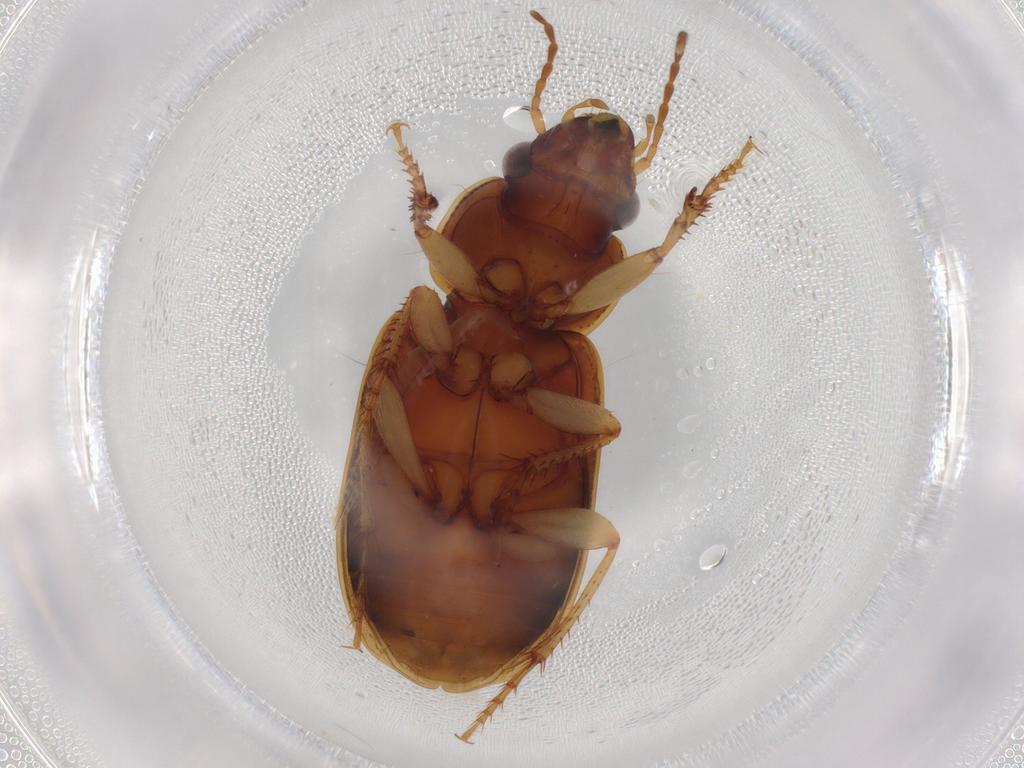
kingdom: Animalia
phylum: Arthropoda
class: Insecta
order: Coleoptera
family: Carabidae
